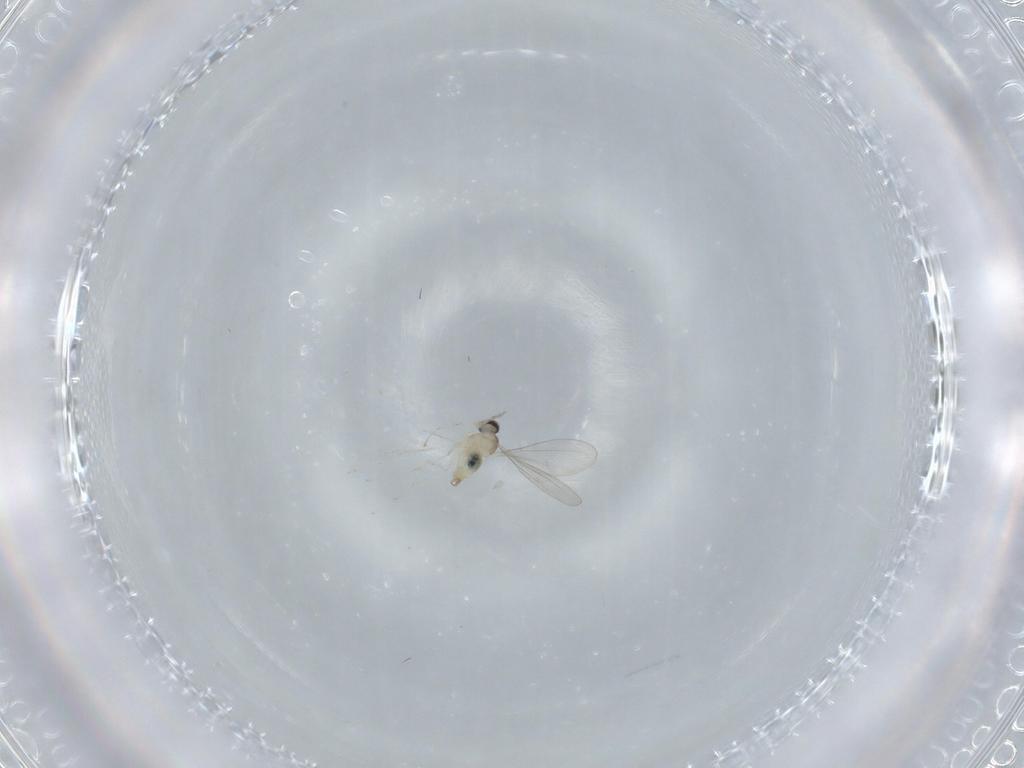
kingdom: Animalia
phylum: Arthropoda
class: Insecta
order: Diptera
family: Cecidomyiidae
